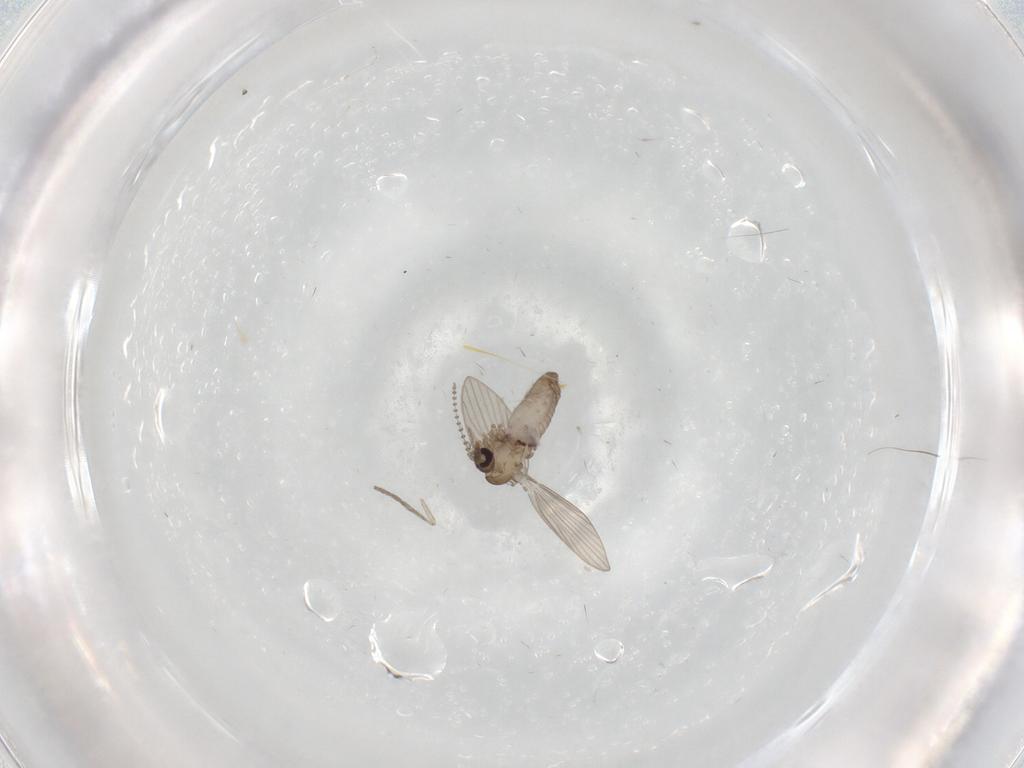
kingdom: Animalia
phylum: Arthropoda
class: Insecta
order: Diptera
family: Psychodidae
